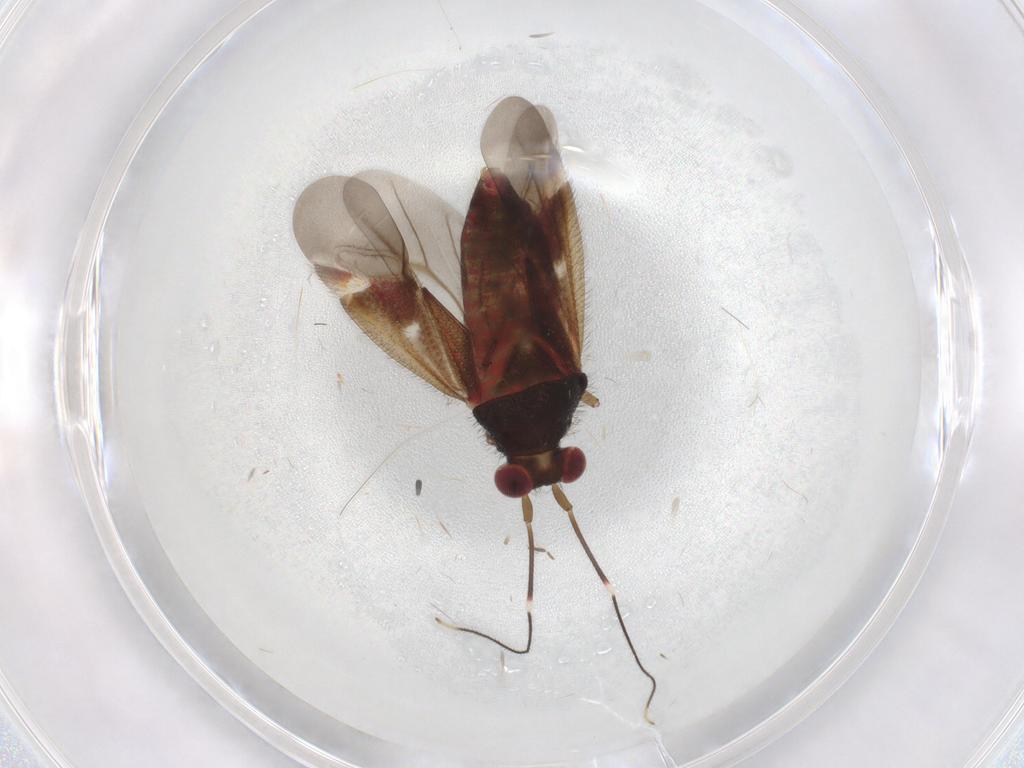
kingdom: Animalia
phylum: Arthropoda
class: Insecta
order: Hemiptera
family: Miridae
